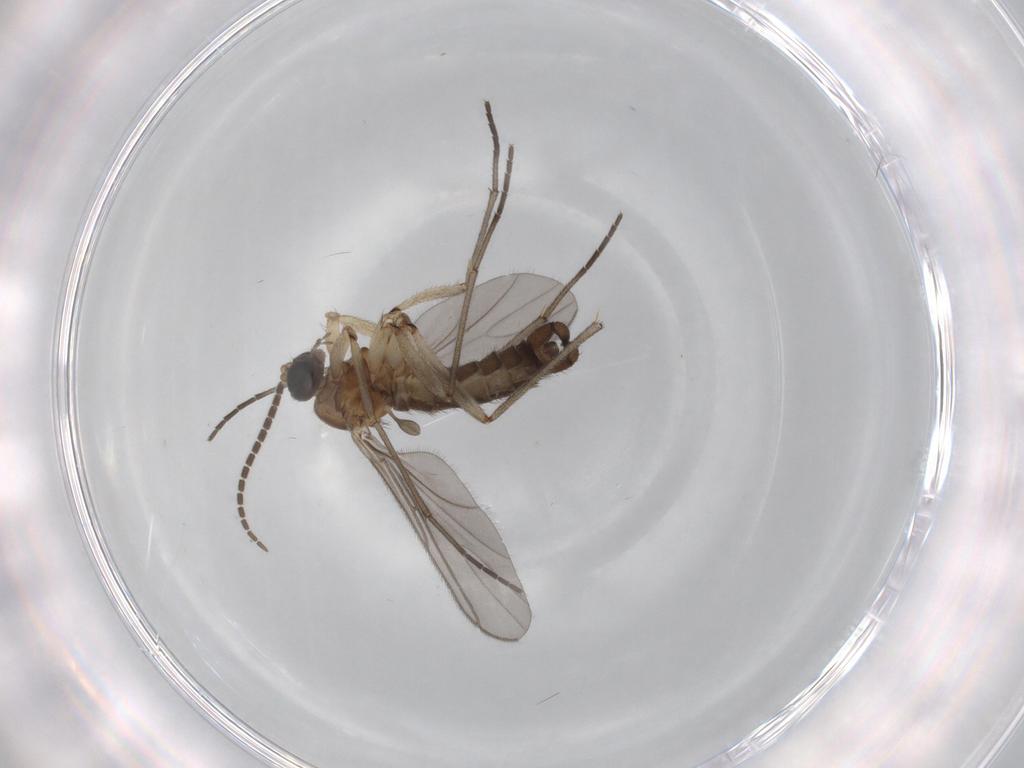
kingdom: Animalia
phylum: Arthropoda
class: Insecta
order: Diptera
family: Sciaridae
